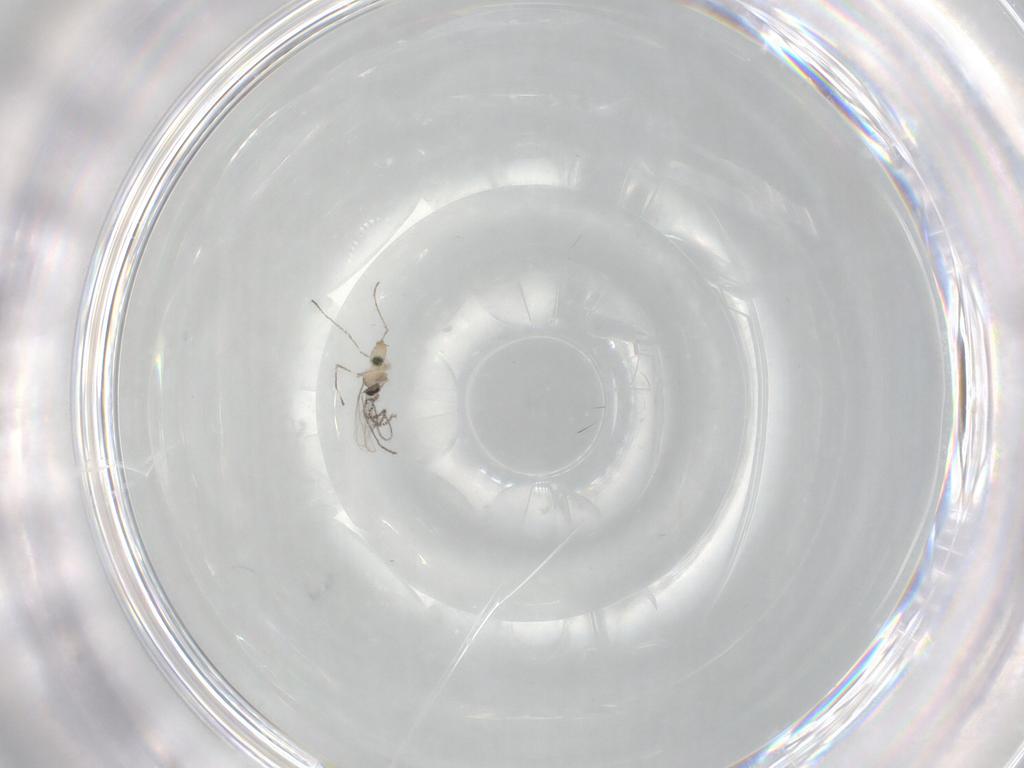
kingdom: Animalia
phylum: Arthropoda
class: Insecta
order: Diptera
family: Cecidomyiidae
